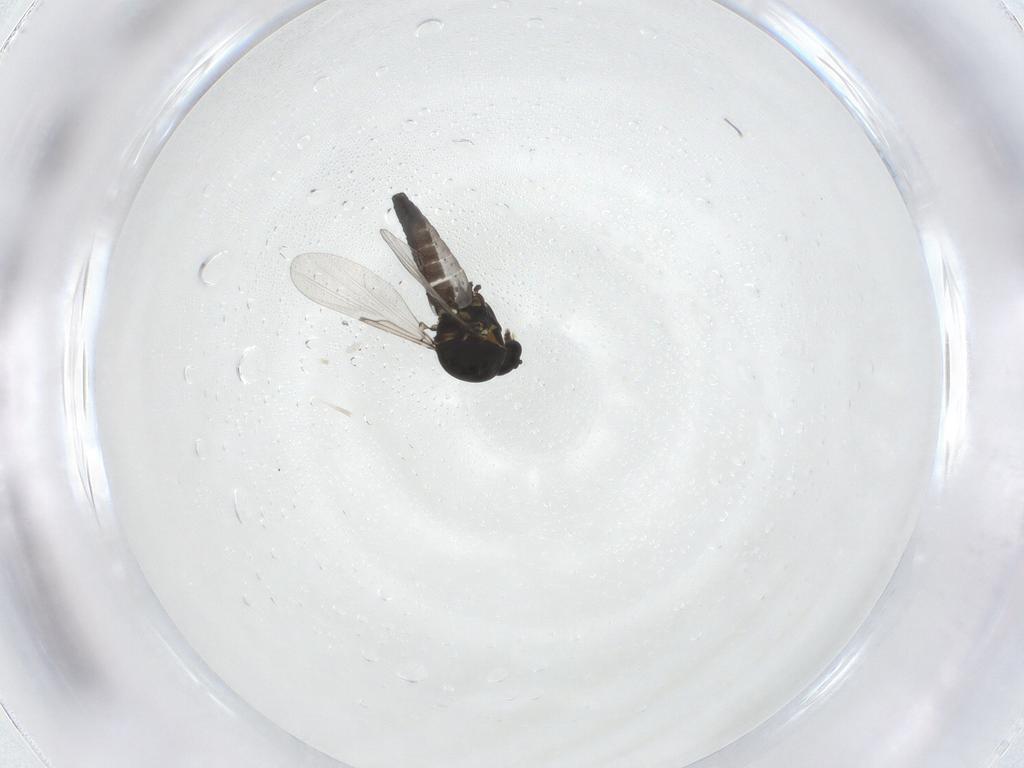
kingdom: Animalia
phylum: Arthropoda
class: Insecta
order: Diptera
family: Ceratopogonidae
